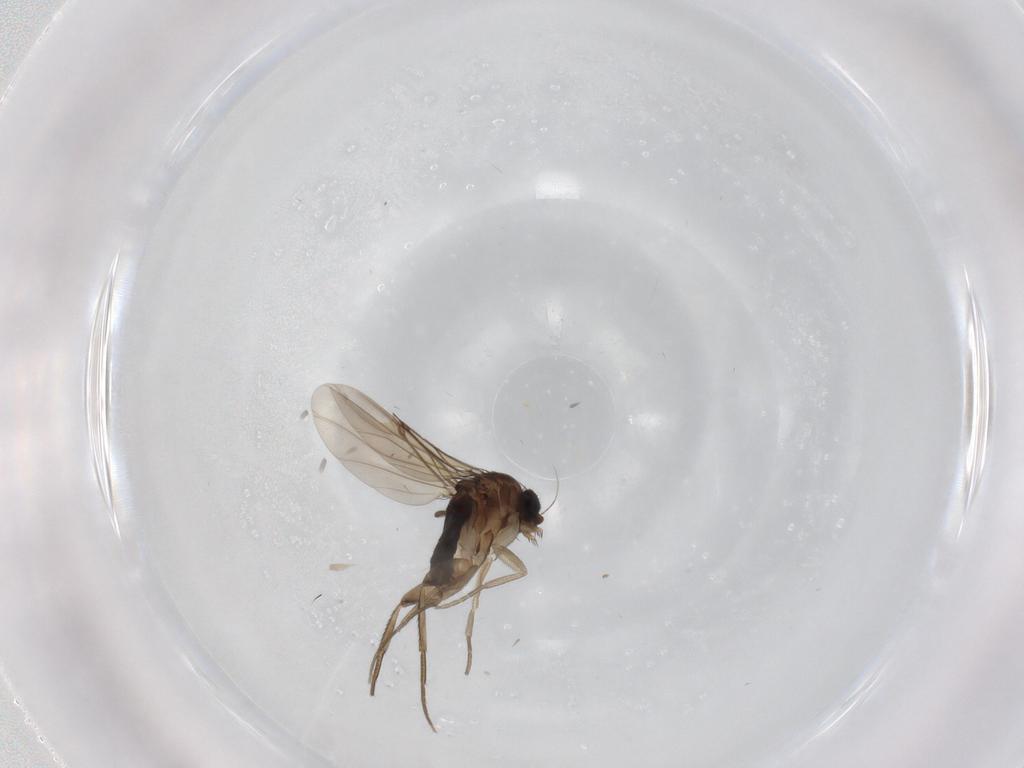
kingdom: Animalia
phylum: Arthropoda
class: Insecta
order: Diptera
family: Phoridae
